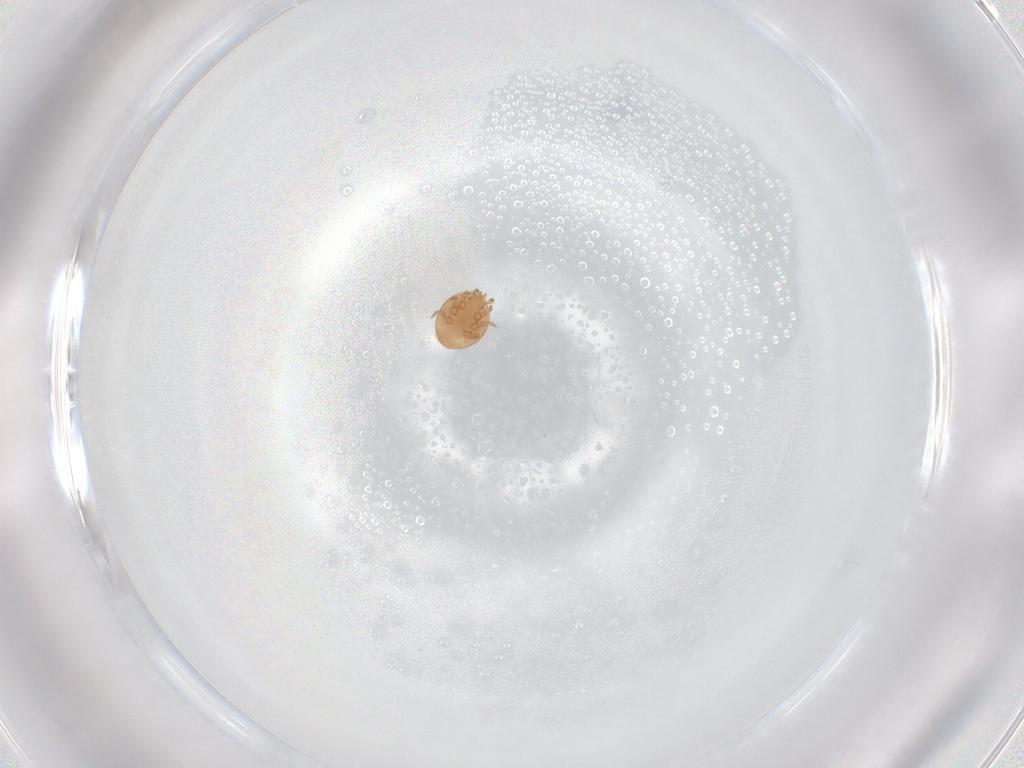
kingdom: Animalia
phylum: Arthropoda
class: Arachnida
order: Mesostigmata
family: Trematuridae
